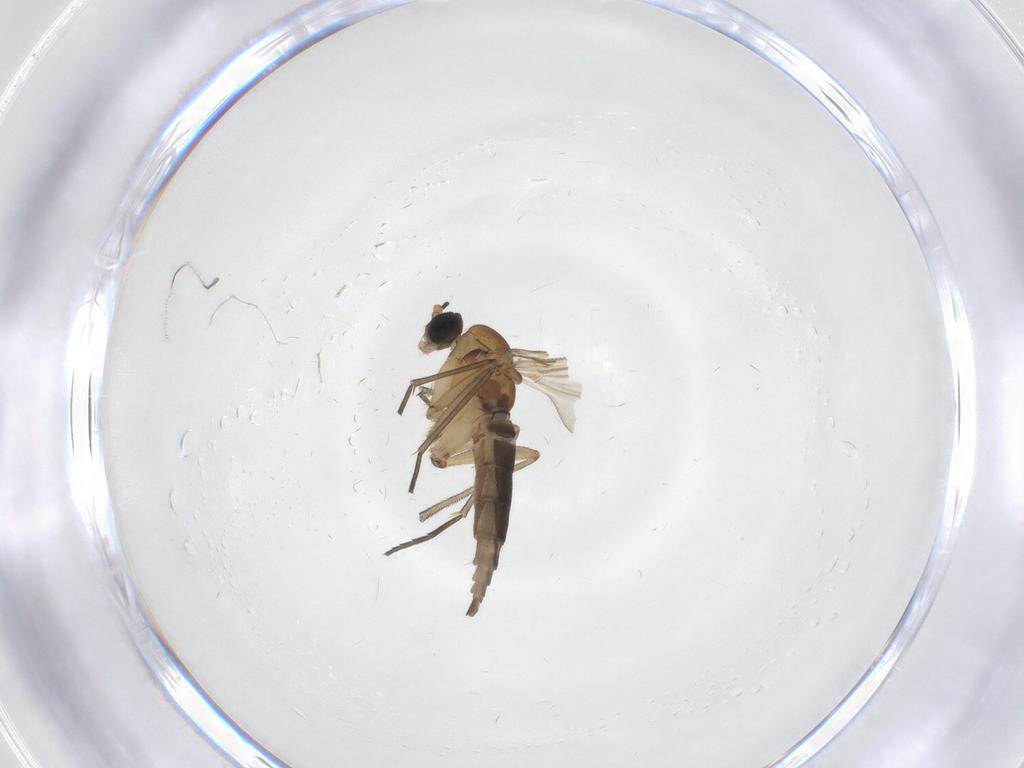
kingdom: Animalia
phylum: Arthropoda
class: Insecta
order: Diptera
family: Sciaridae
